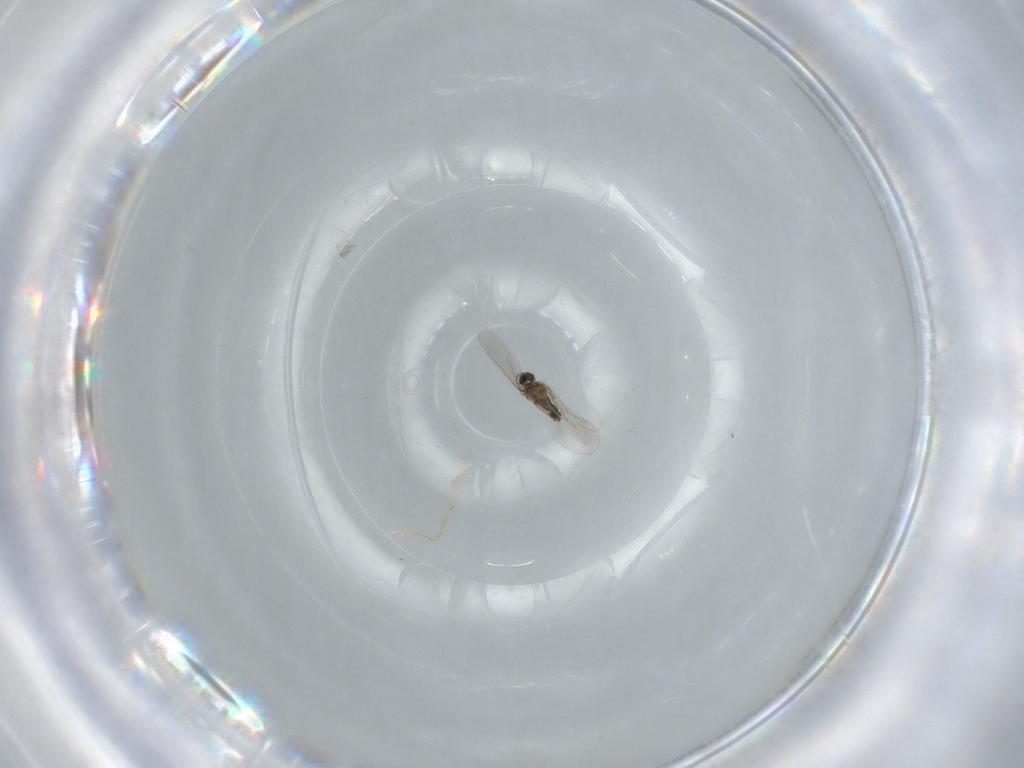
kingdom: Animalia
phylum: Arthropoda
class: Insecta
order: Diptera
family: Cecidomyiidae
